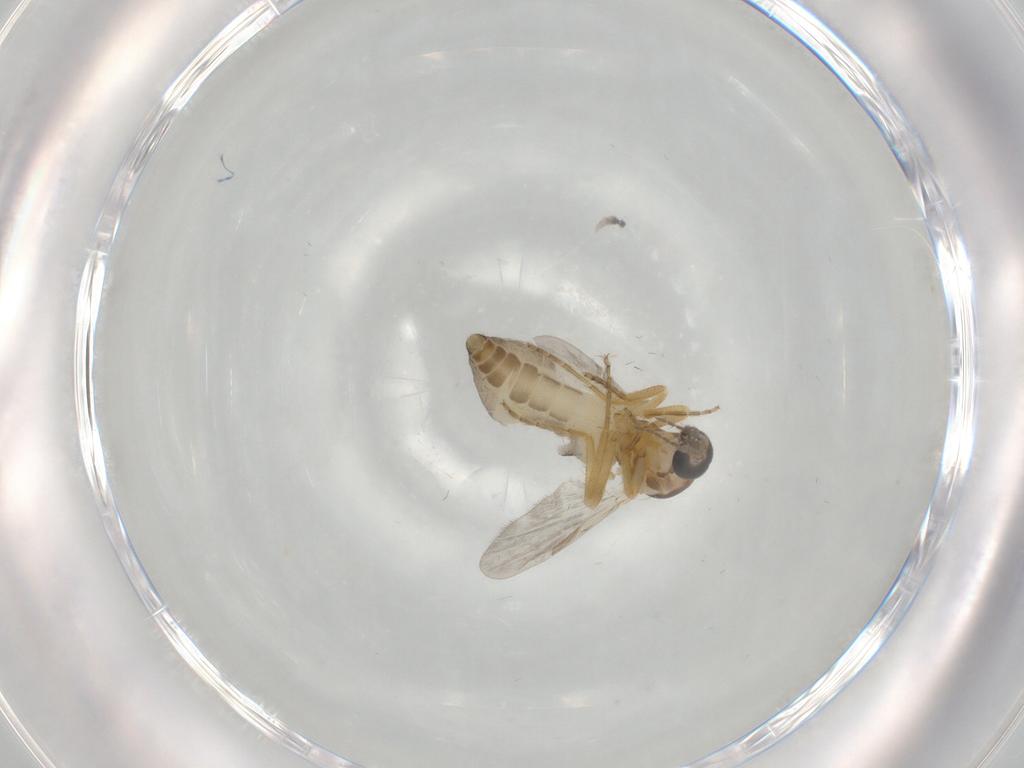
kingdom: Animalia
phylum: Arthropoda
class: Insecta
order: Diptera
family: Ceratopogonidae
